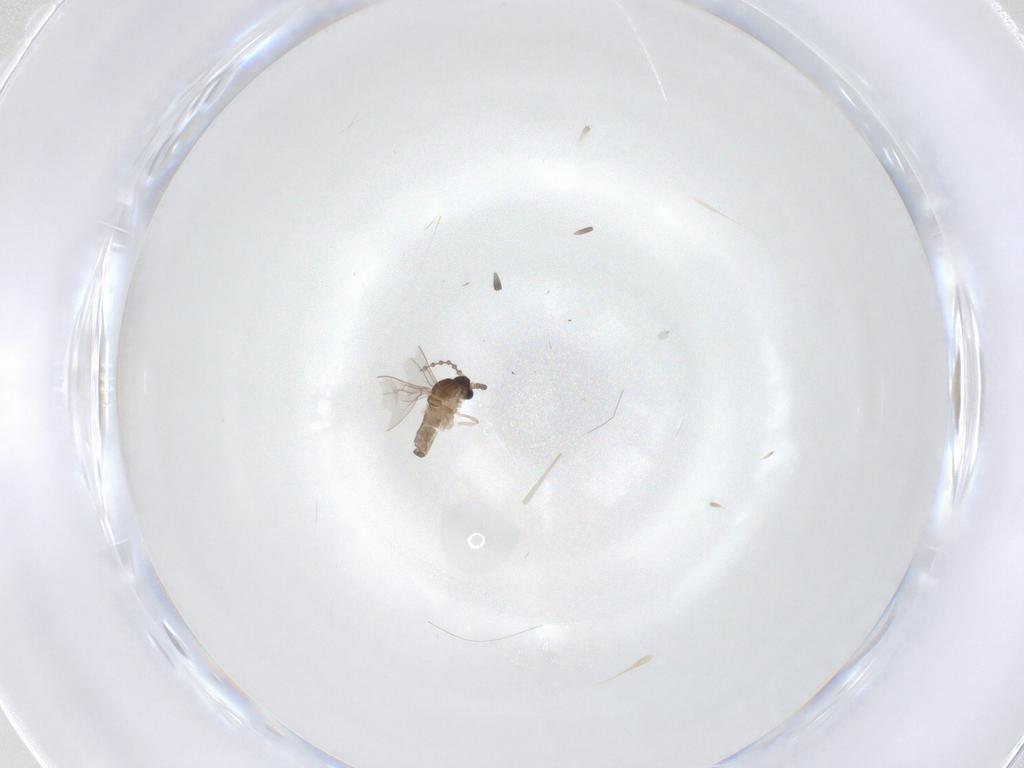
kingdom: Animalia
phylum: Arthropoda
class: Insecta
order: Diptera
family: Cecidomyiidae
